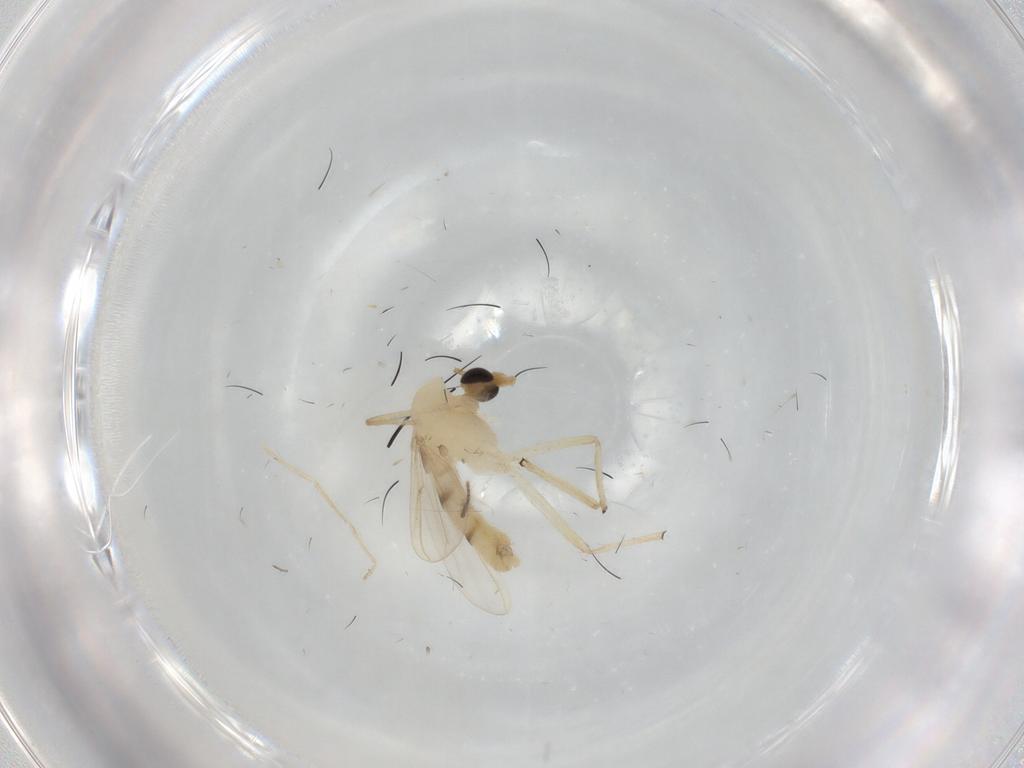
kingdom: Animalia
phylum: Arthropoda
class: Insecta
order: Diptera
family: Chironomidae
